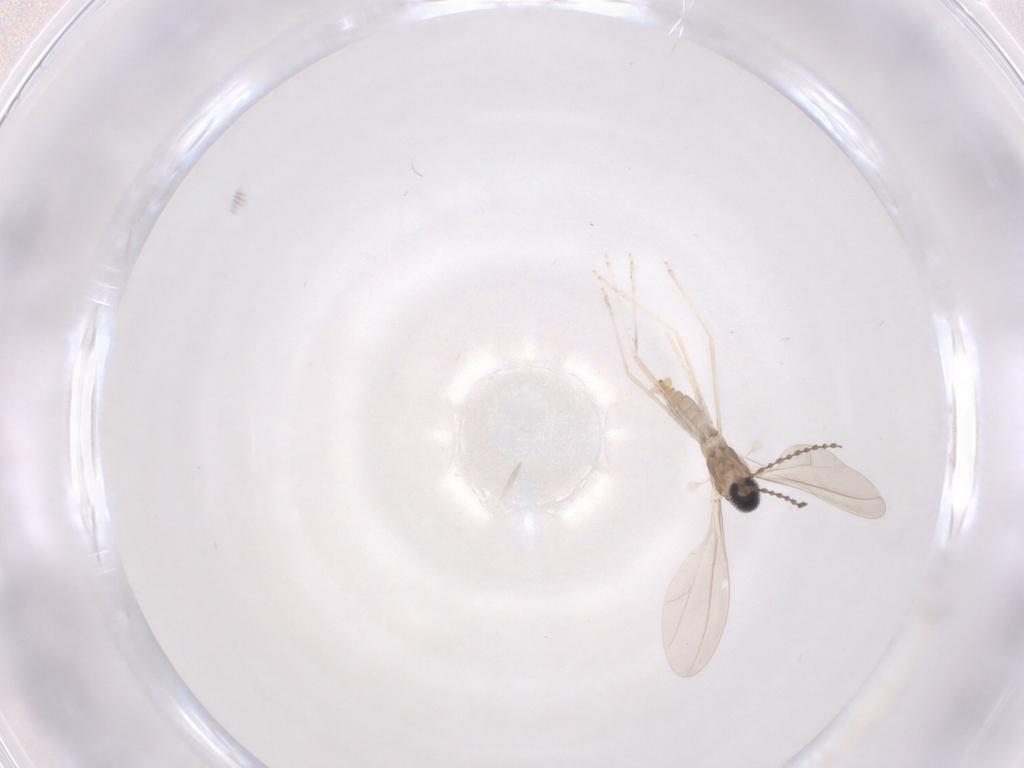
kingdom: Animalia
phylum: Arthropoda
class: Insecta
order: Diptera
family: Cecidomyiidae
